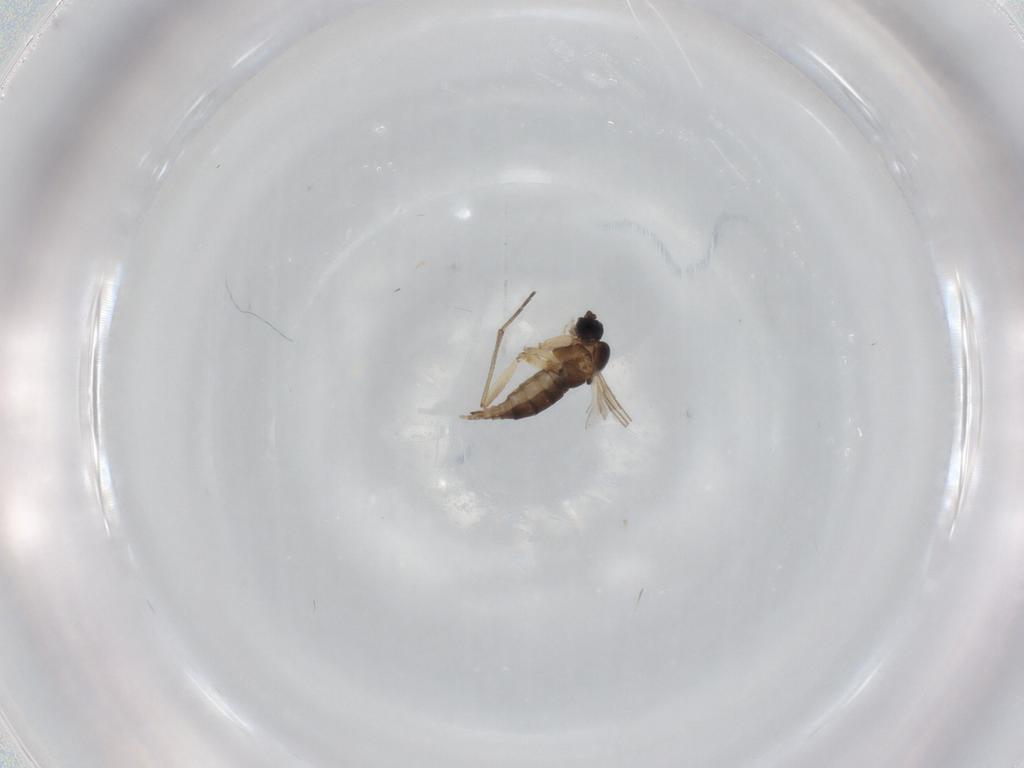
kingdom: Animalia
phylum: Arthropoda
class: Insecta
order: Diptera
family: Sciaridae
